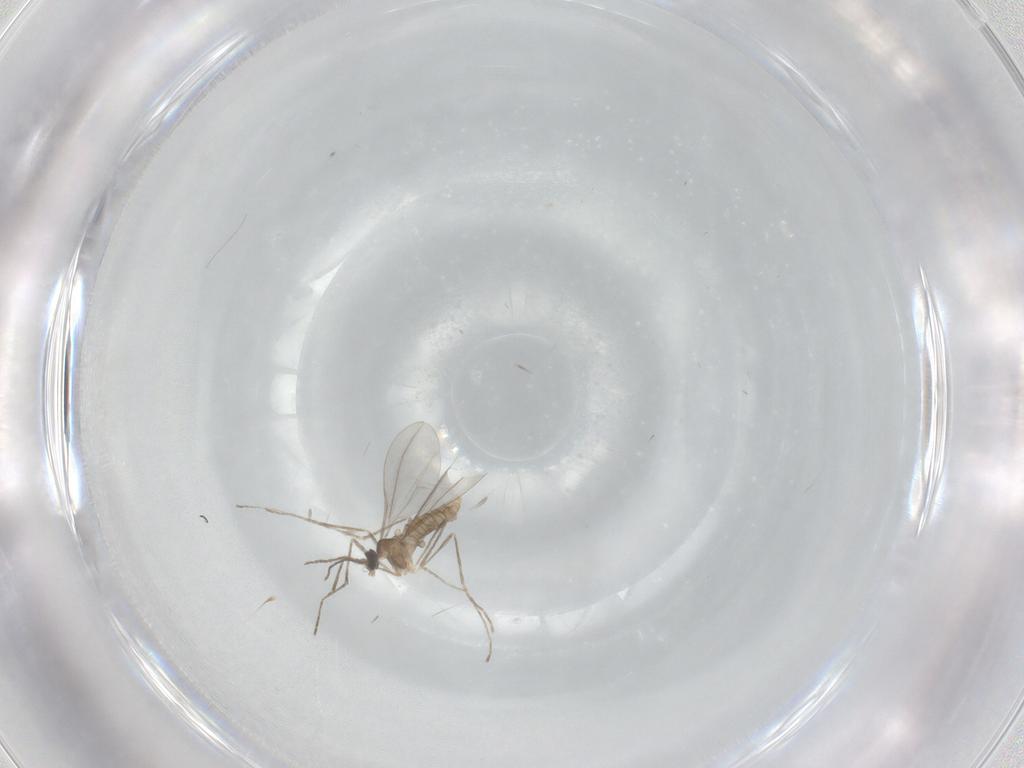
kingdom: Animalia
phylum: Arthropoda
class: Insecta
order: Diptera
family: Cecidomyiidae
